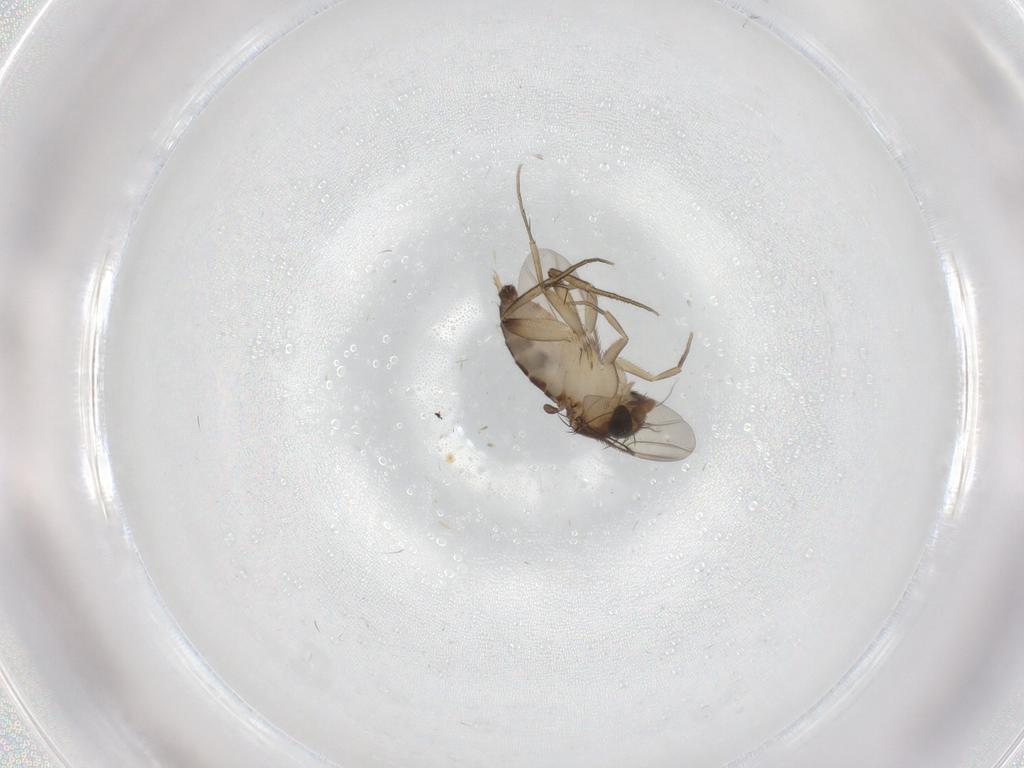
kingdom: Animalia
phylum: Arthropoda
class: Insecta
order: Diptera
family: Phoridae
